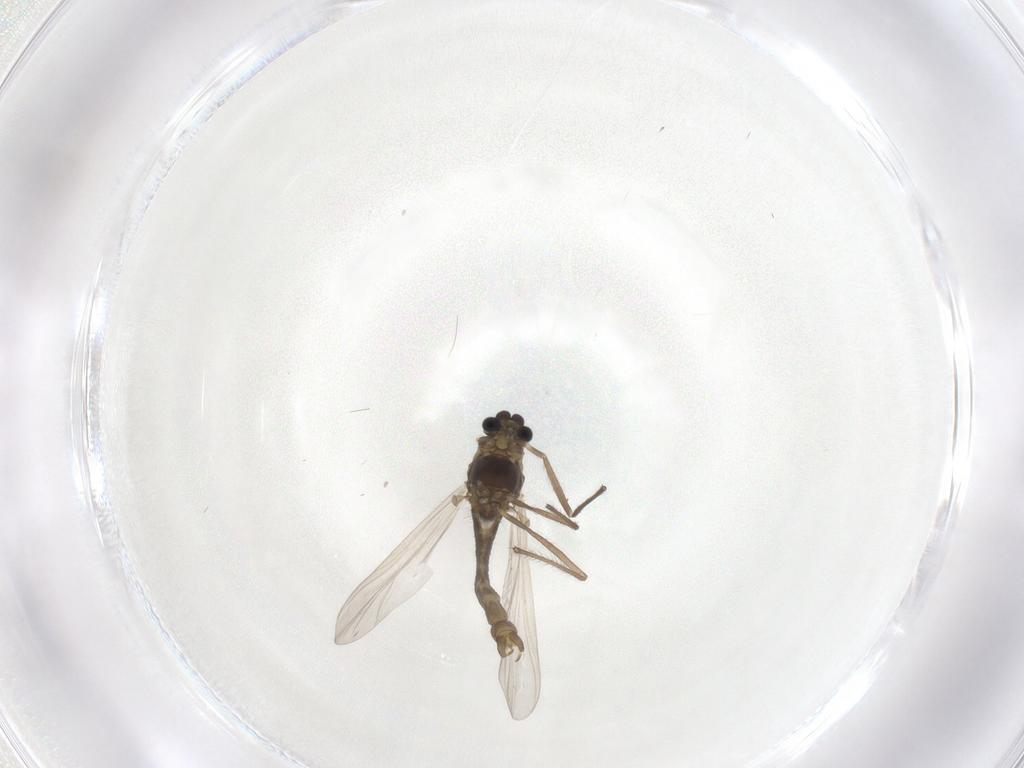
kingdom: Animalia
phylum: Arthropoda
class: Insecta
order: Diptera
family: Chironomidae
